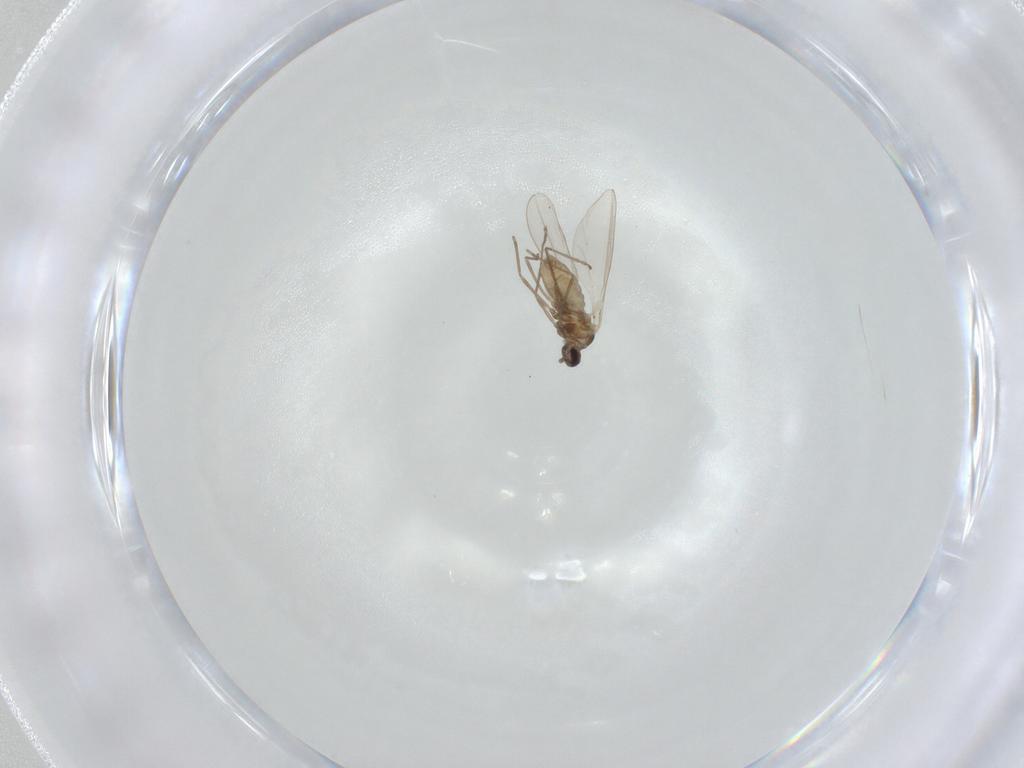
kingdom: Animalia
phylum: Arthropoda
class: Insecta
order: Diptera
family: Cecidomyiidae
